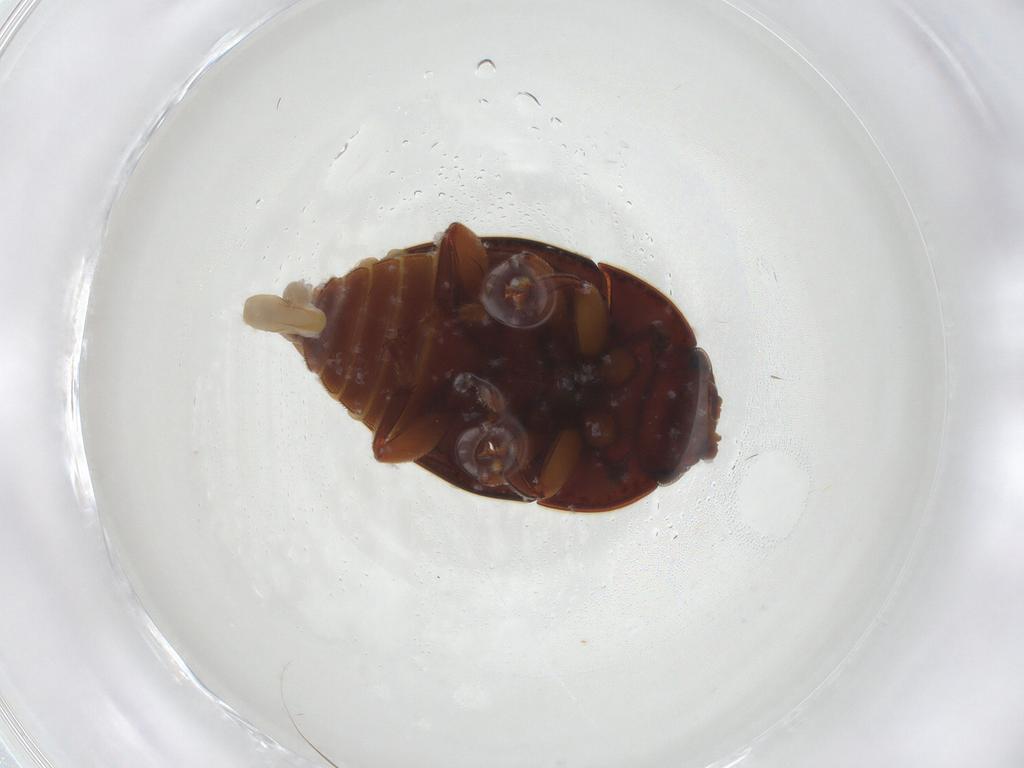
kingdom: Animalia
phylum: Arthropoda
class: Insecta
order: Coleoptera
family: Nitidulidae
